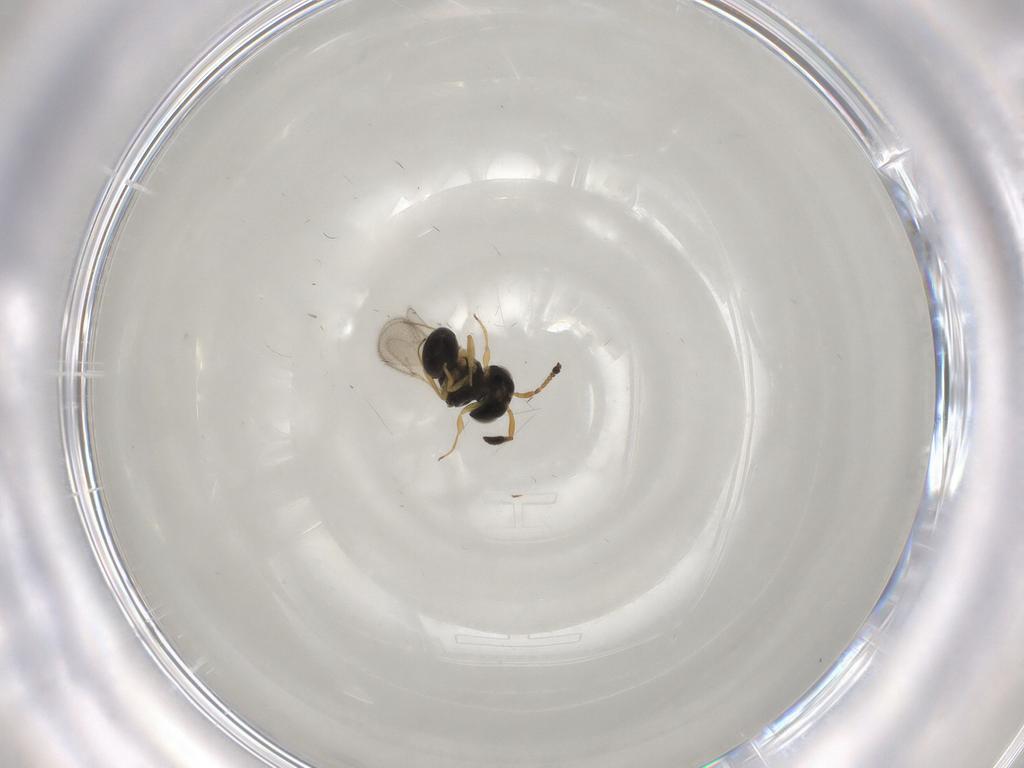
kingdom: Animalia
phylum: Arthropoda
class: Insecta
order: Hymenoptera
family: Scelionidae
